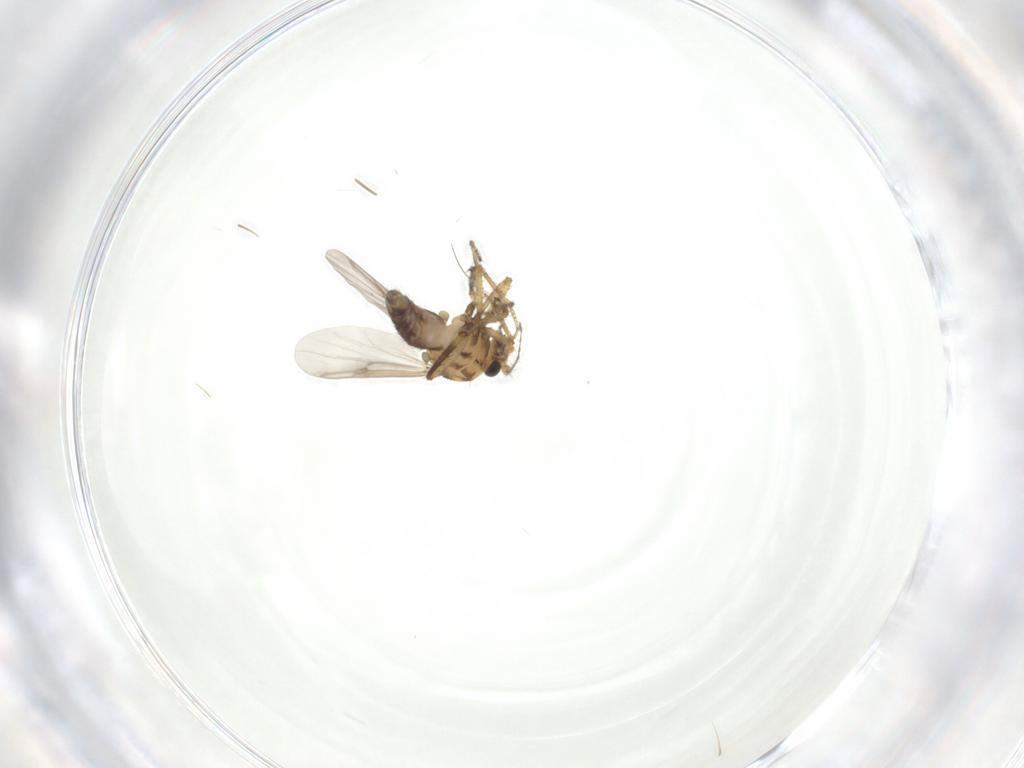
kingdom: Animalia
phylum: Arthropoda
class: Insecta
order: Diptera
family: Ceratopogonidae
